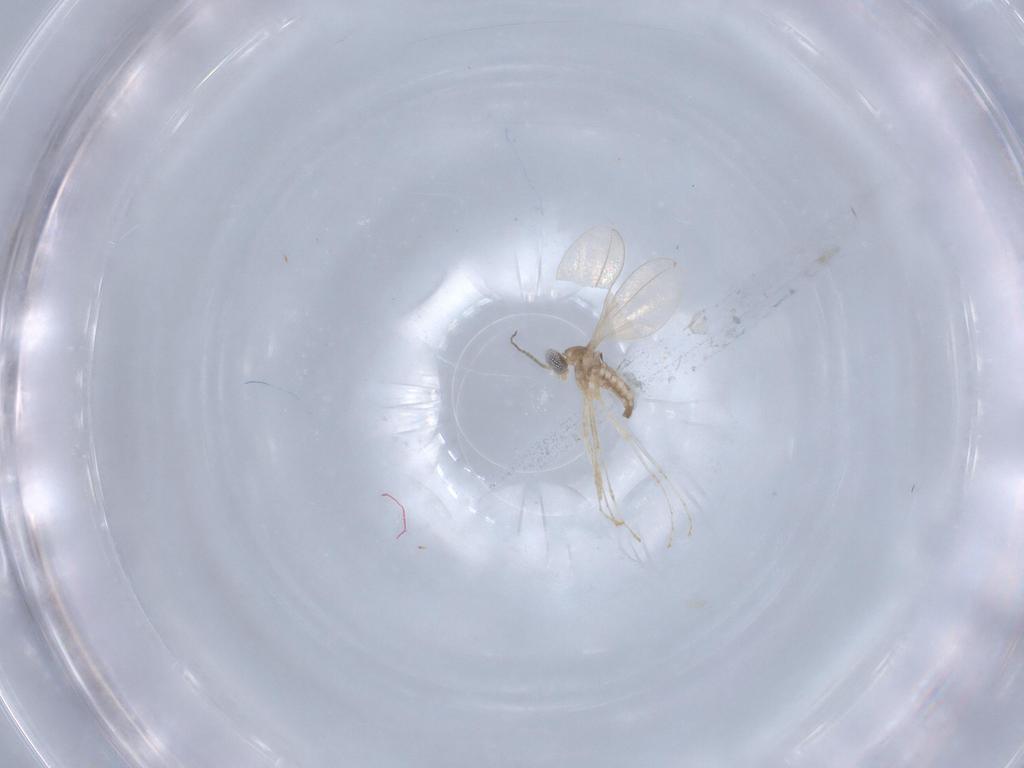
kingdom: Animalia
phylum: Arthropoda
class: Insecta
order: Diptera
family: Cecidomyiidae
